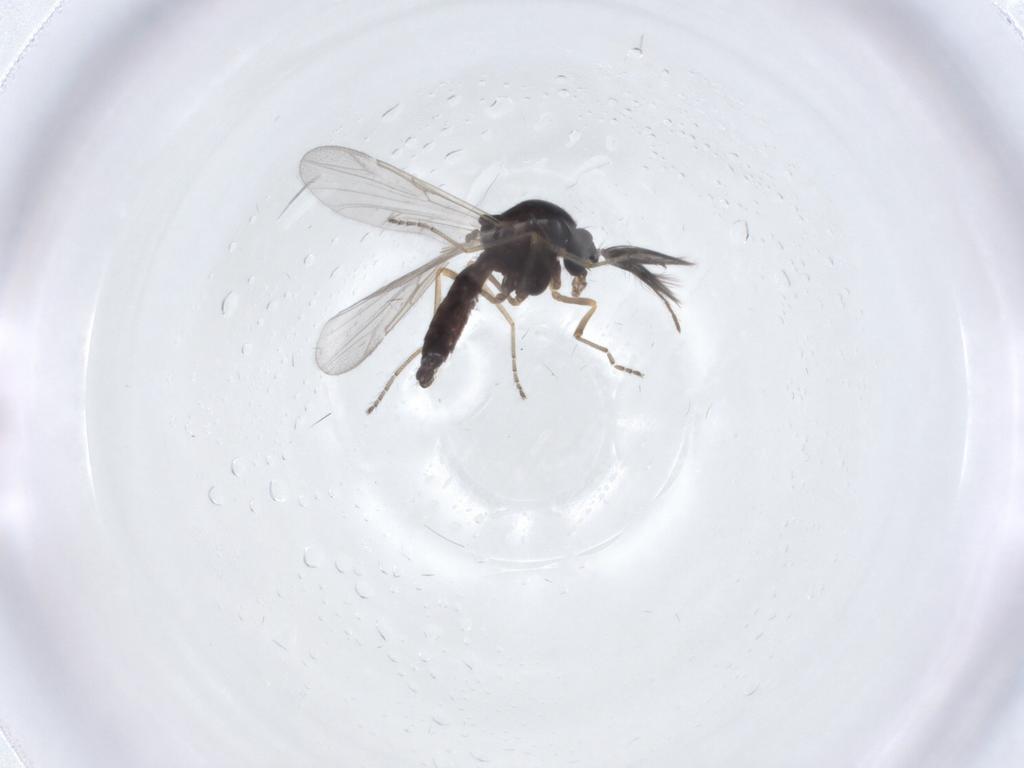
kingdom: Animalia
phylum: Arthropoda
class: Insecta
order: Diptera
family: Ceratopogonidae
